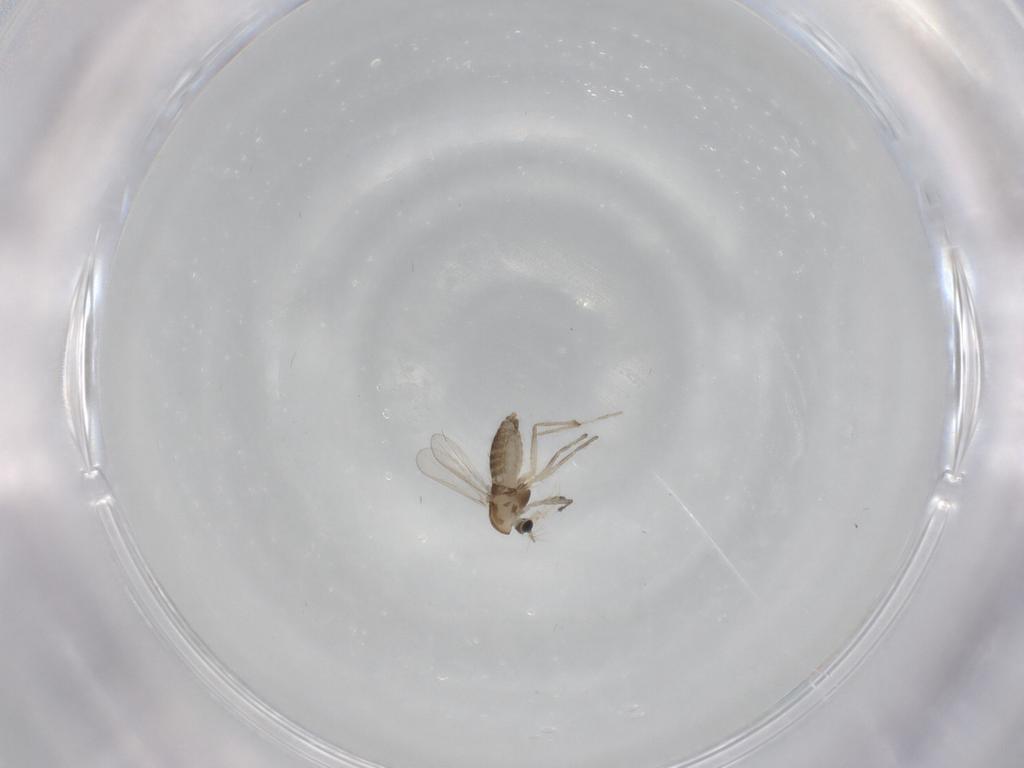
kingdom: Animalia
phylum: Arthropoda
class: Insecta
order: Diptera
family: Chironomidae
